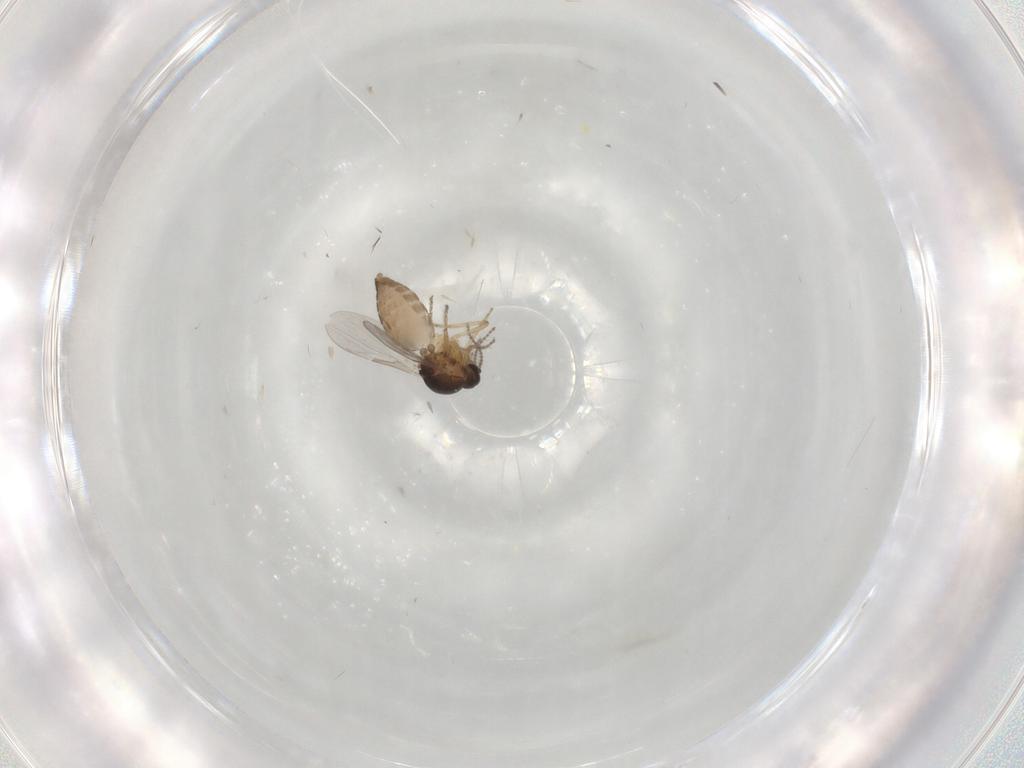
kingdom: Animalia
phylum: Arthropoda
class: Insecta
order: Diptera
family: Ceratopogonidae
